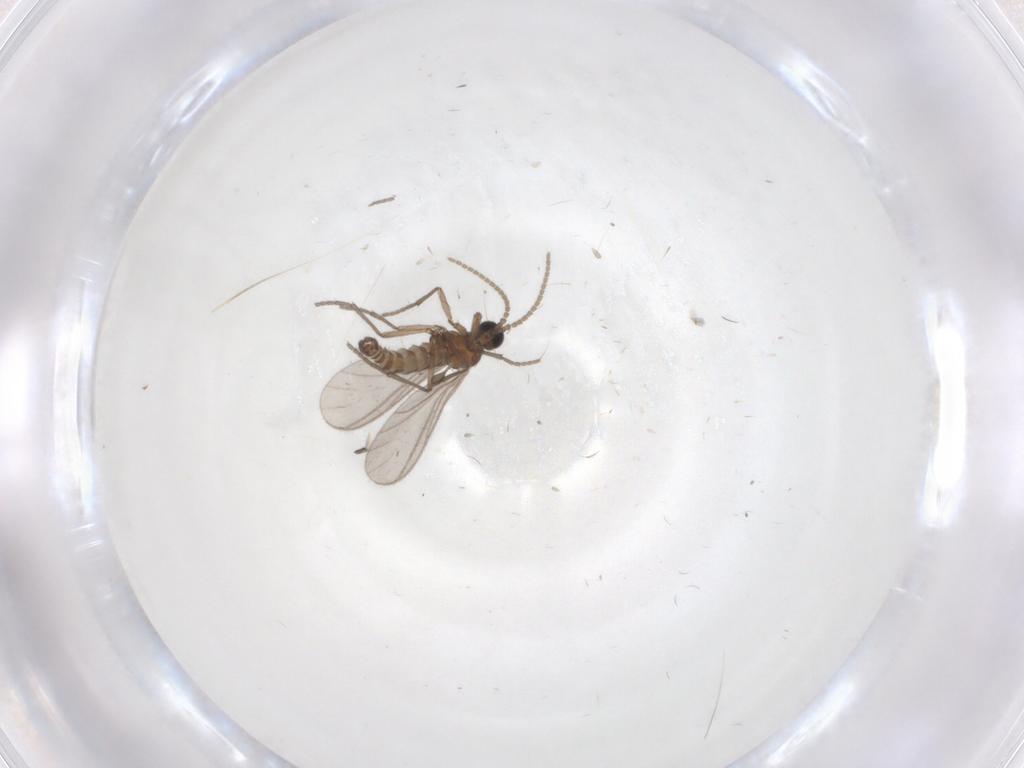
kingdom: Animalia
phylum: Arthropoda
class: Insecta
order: Diptera
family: Sciaridae
